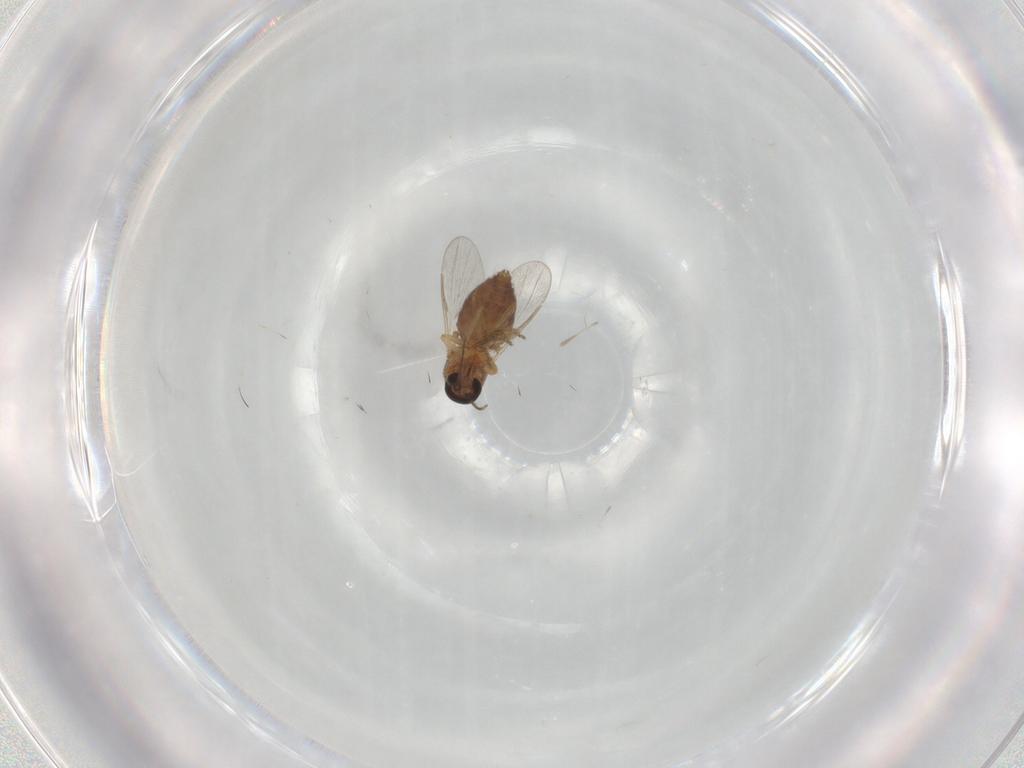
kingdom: Animalia
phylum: Arthropoda
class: Insecta
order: Diptera
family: Ceratopogonidae
